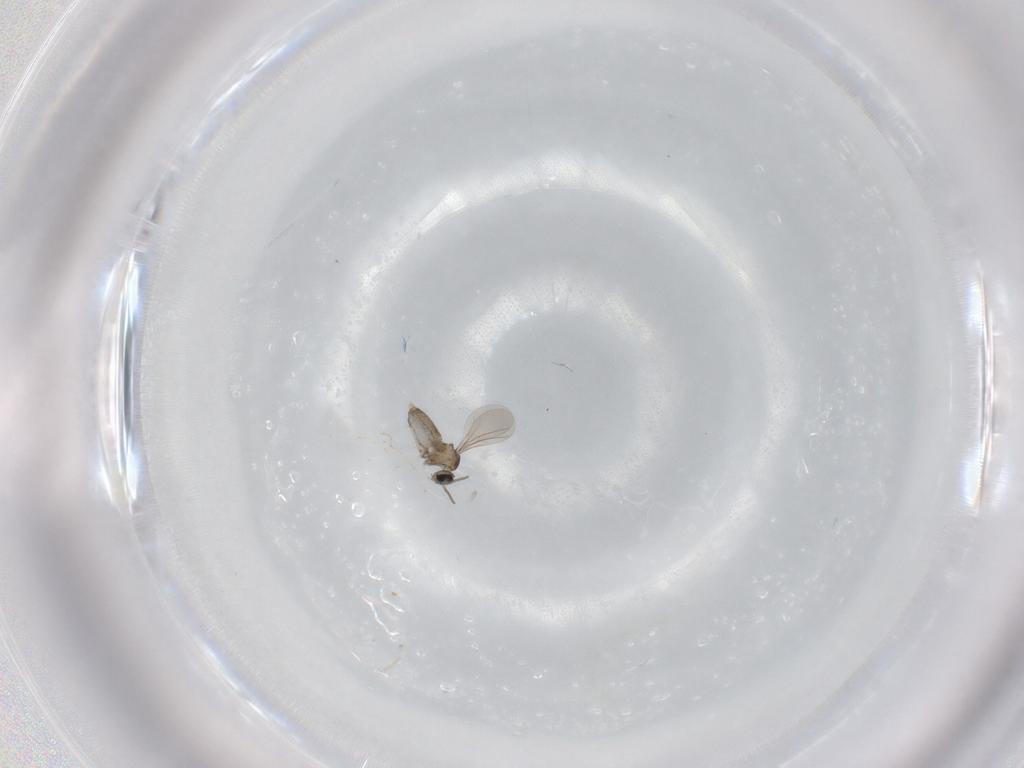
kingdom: Animalia
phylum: Arthropoda
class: Insecta
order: Diptera
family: Cecidomyiidae
